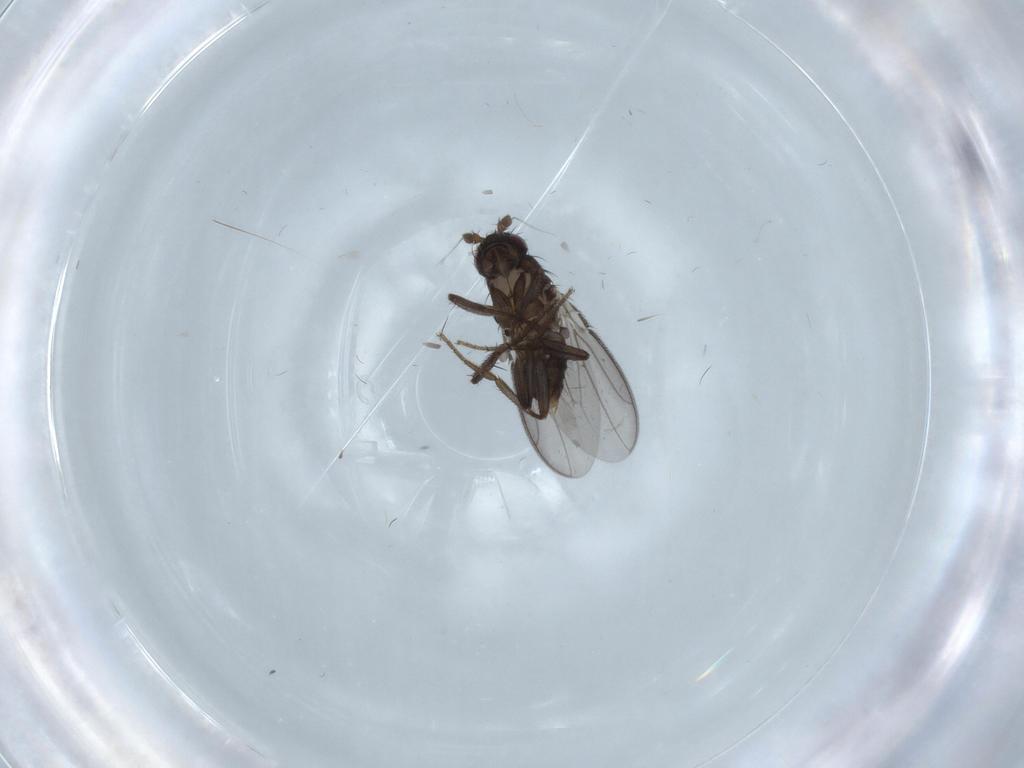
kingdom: Animalia
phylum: Arthropoda
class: Insecta
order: Diptera
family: Cecidomyiidae
